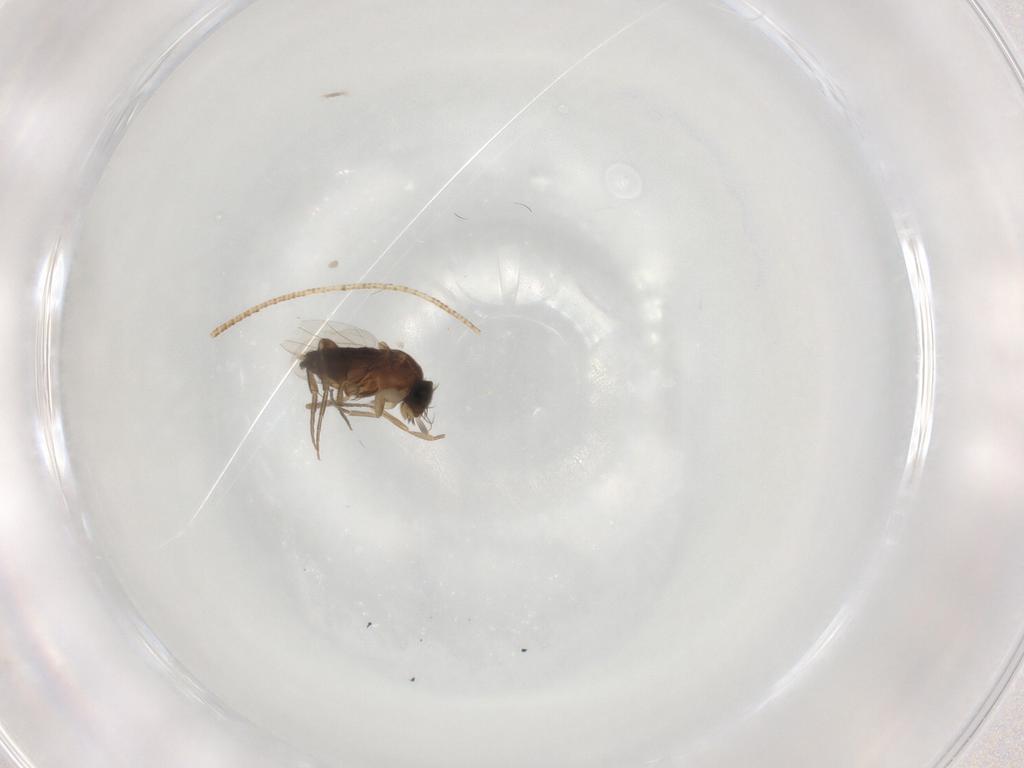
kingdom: Animalia
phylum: Arthropoda
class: Insecta
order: Diptera
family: Phoridae
